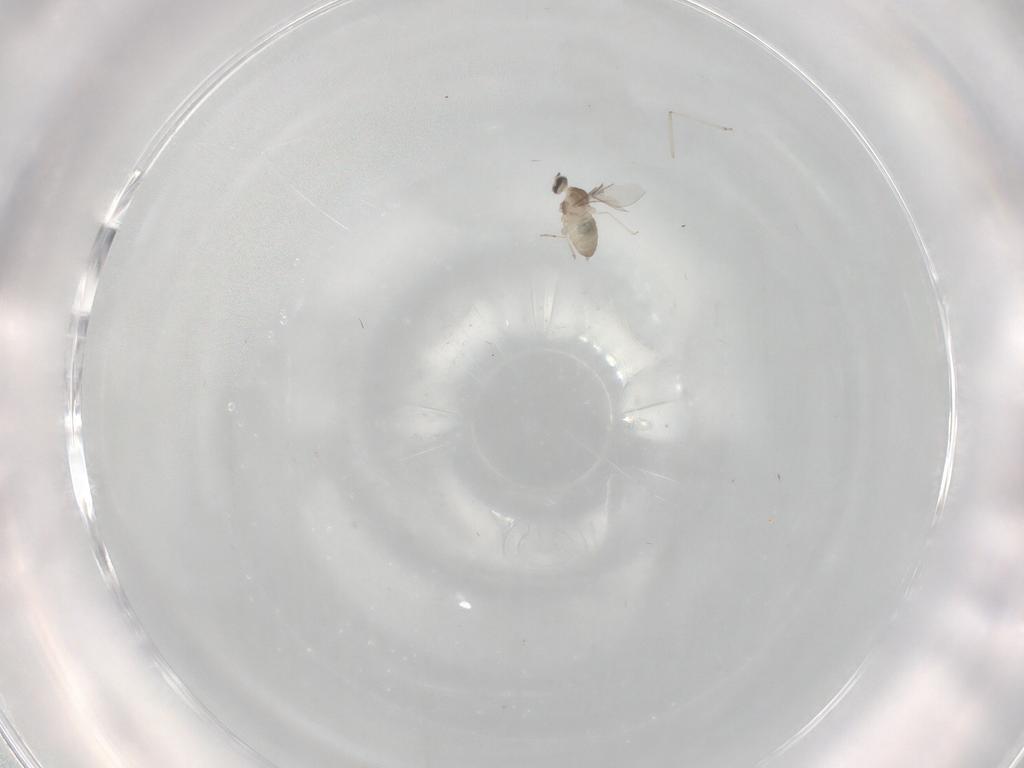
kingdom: Animalia
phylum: Arthropoda
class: Insecta
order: Diptera
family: Cecidomyiidae
